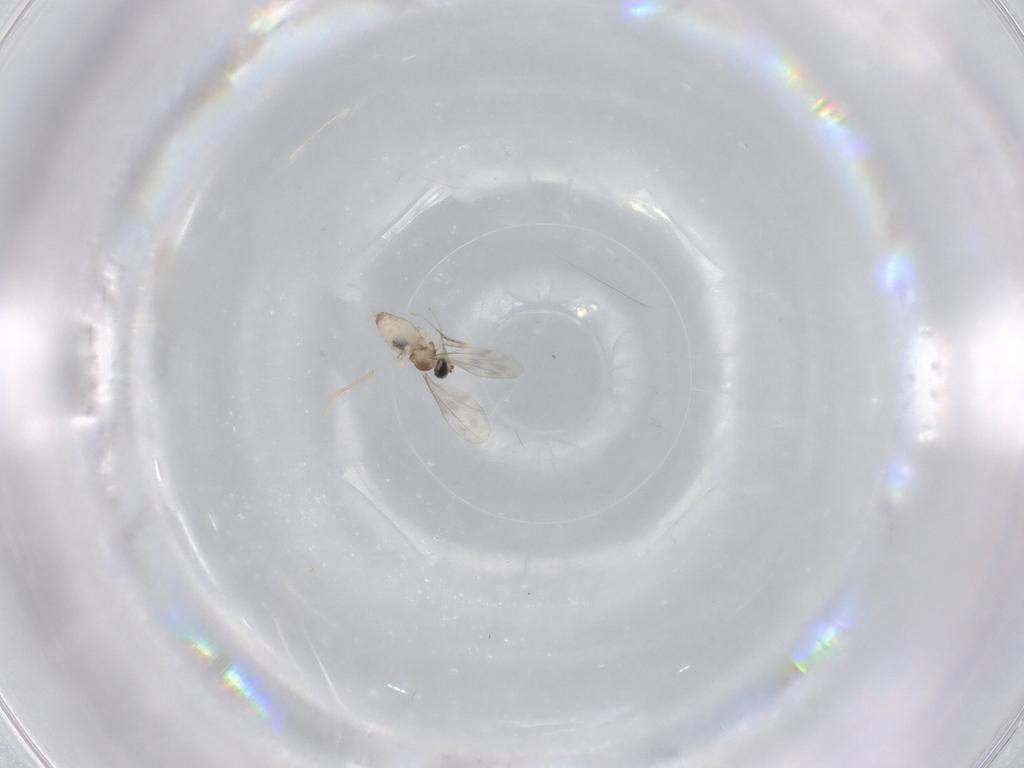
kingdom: Animalia
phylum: Arthropoda
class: Insecta
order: Diptera
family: Cecidomyiidae
